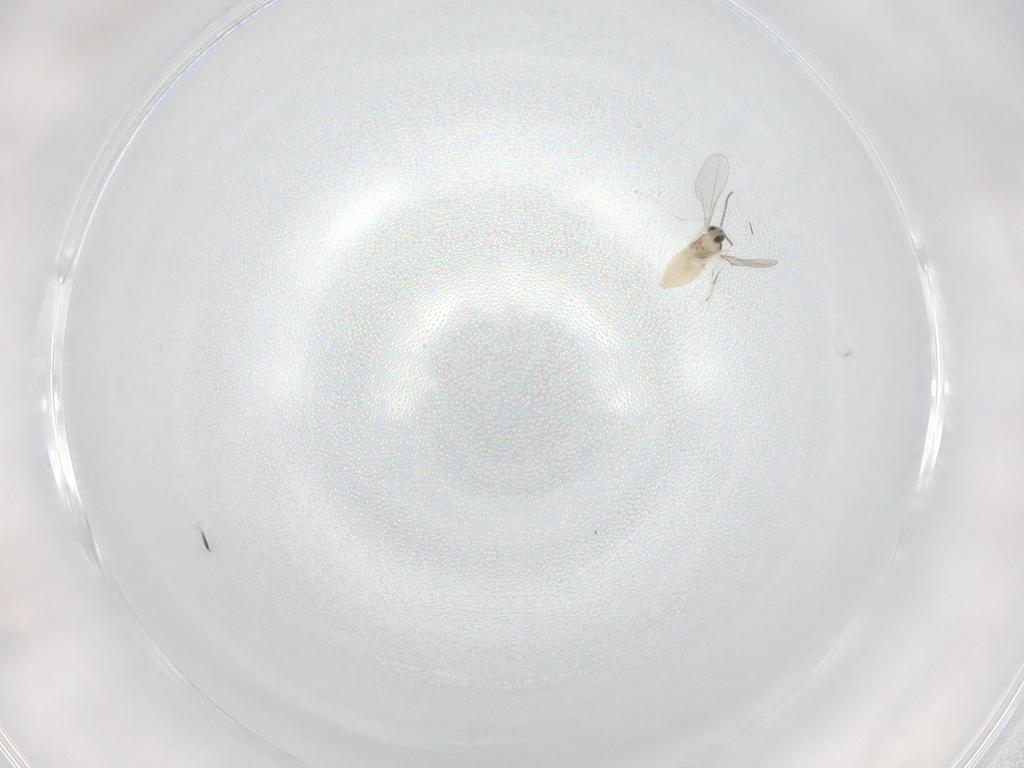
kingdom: Animalia
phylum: Arthropoda
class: Insecta
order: Diptera
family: Cecidomyiidae
